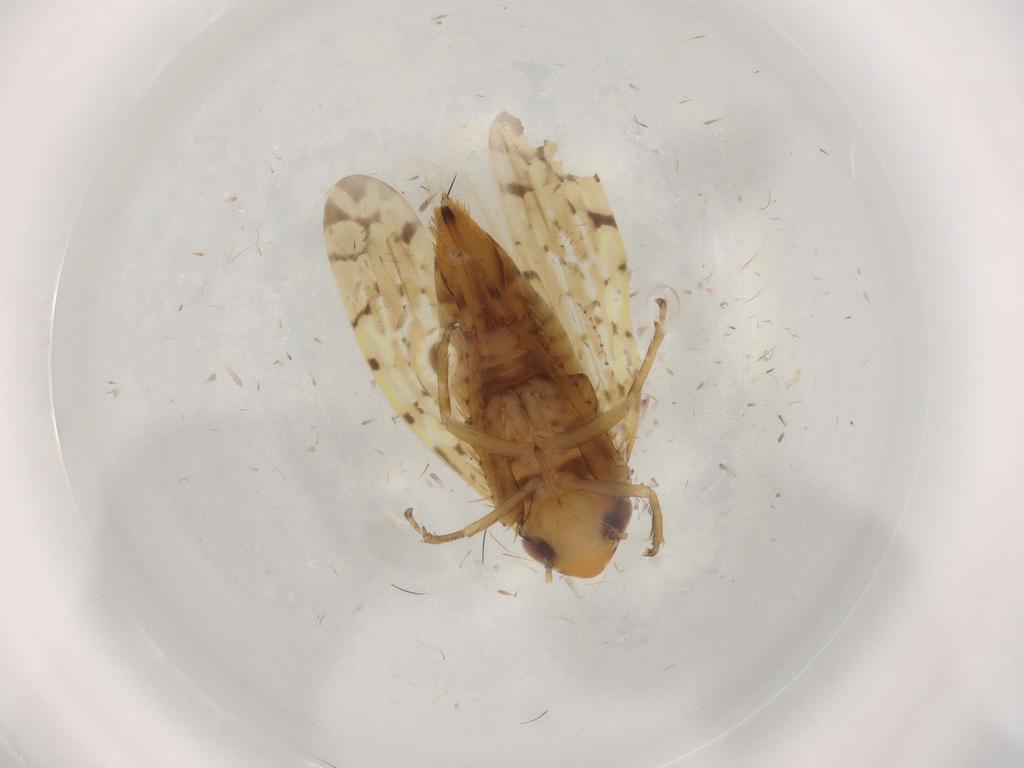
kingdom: Animalia
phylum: Arthropoda
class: Insecta
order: Hemiptera
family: Cicadellidae
